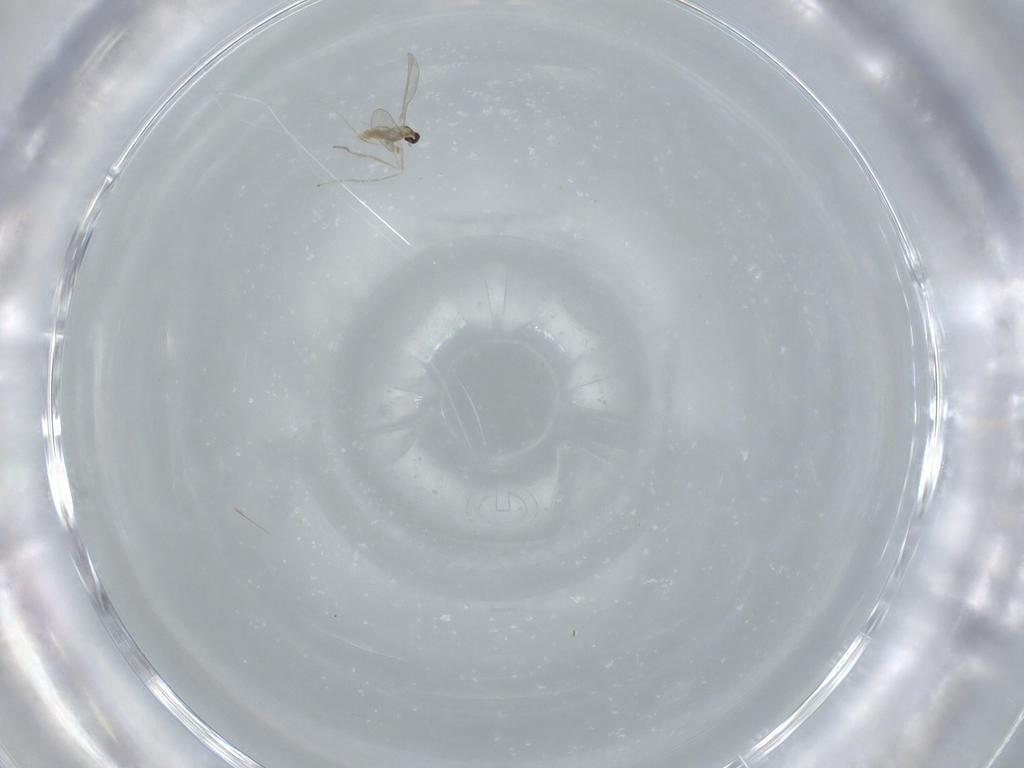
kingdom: Animalia
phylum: Arthropoda
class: Insecta
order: Diptera
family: Cecidomyiidae
